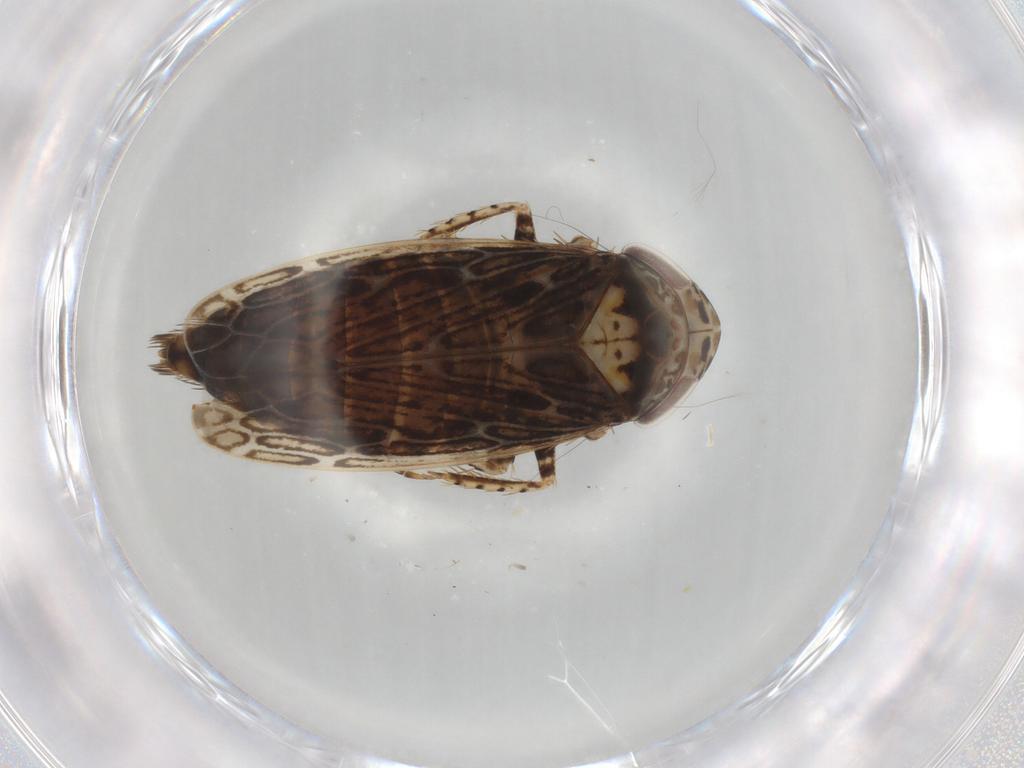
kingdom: Animalia
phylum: Arthropoda
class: Insecta
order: Hemiptera
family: Cicadellidae
